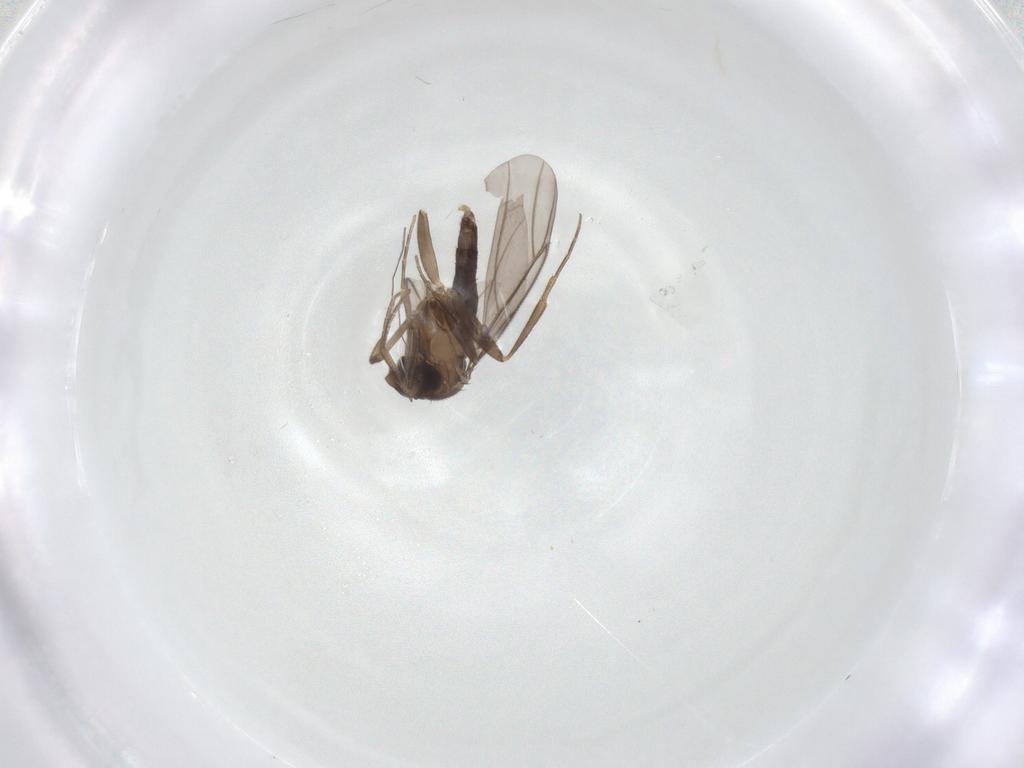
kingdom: Animalia
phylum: Arthropoda
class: Insecta
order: Diptera
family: Phoridae
